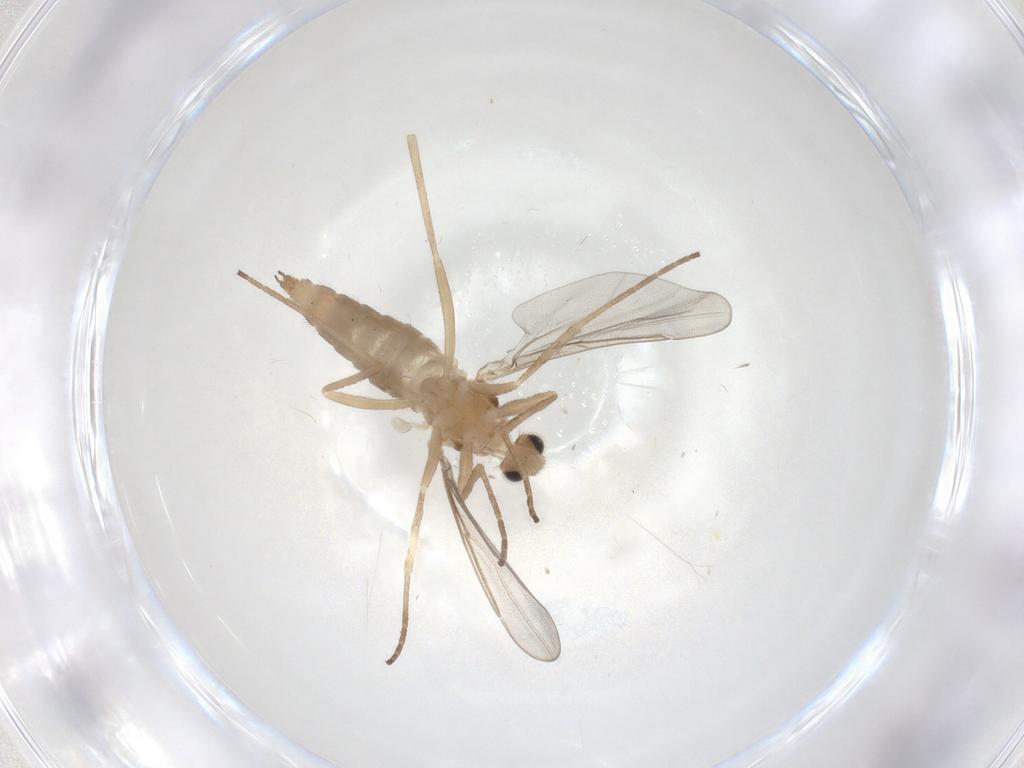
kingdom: Animalia
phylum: Arthropoda
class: Insecta
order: Diptera
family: Cecidomyiidae
